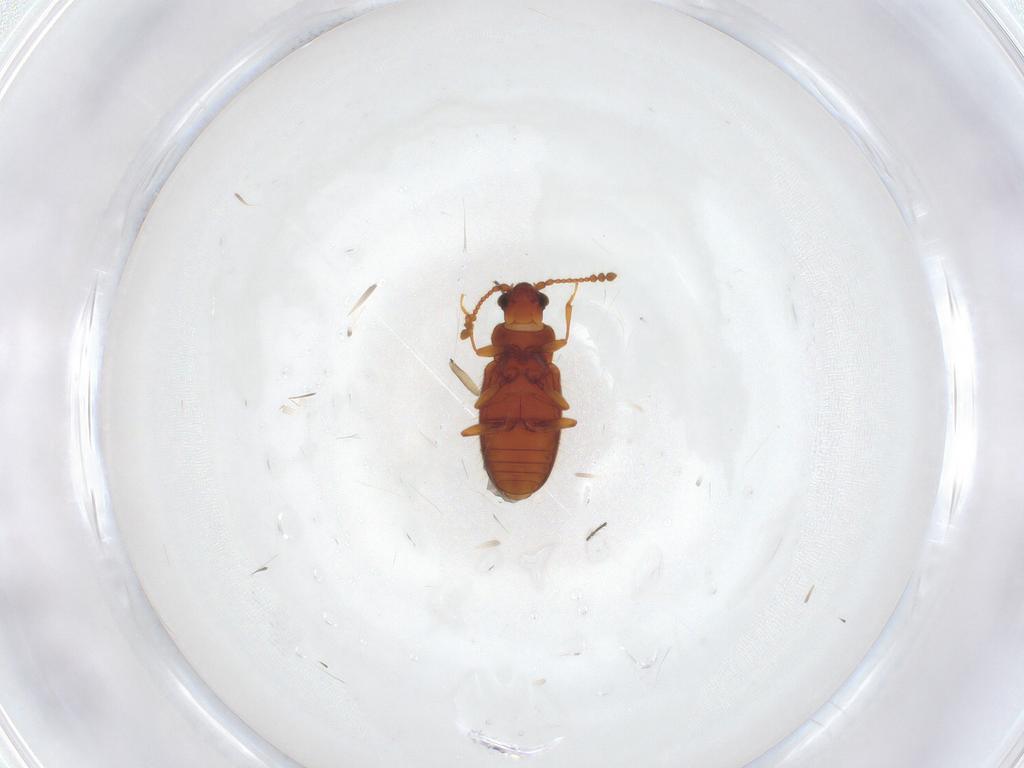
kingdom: Animalia
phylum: Arthropoda
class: Insecta
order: Coleoptera
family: Cryptophagidae
